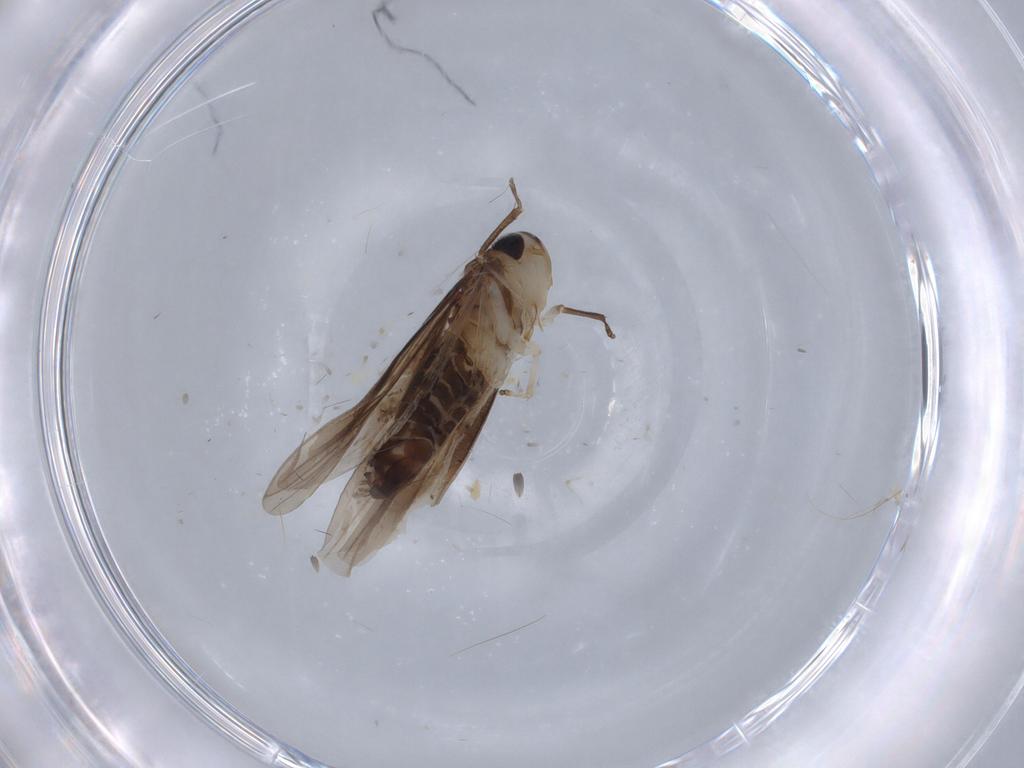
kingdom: Animalia
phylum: Arthropoda
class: Insecta
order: Hemiptera
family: Cicadellidae
